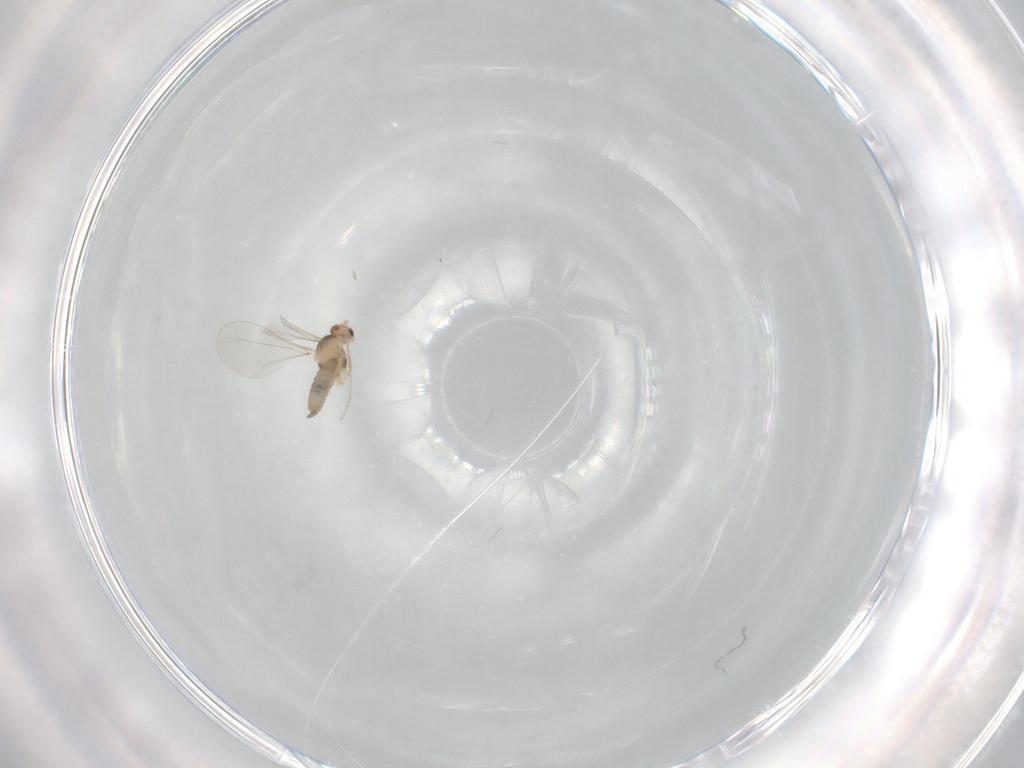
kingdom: Animalia
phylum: Arthropoda
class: Insecta
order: Diptera
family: Cecidomyiidae
